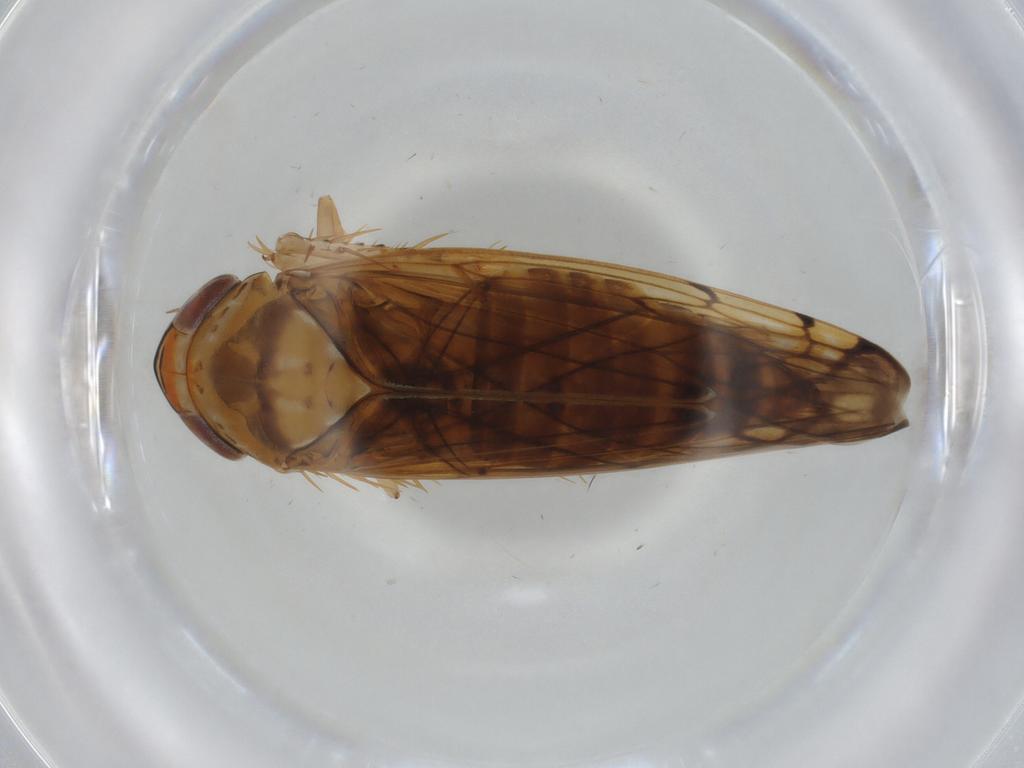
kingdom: Animalia
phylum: Arthropoda
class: Insecta
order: Hemiptera
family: Cicadellidae
